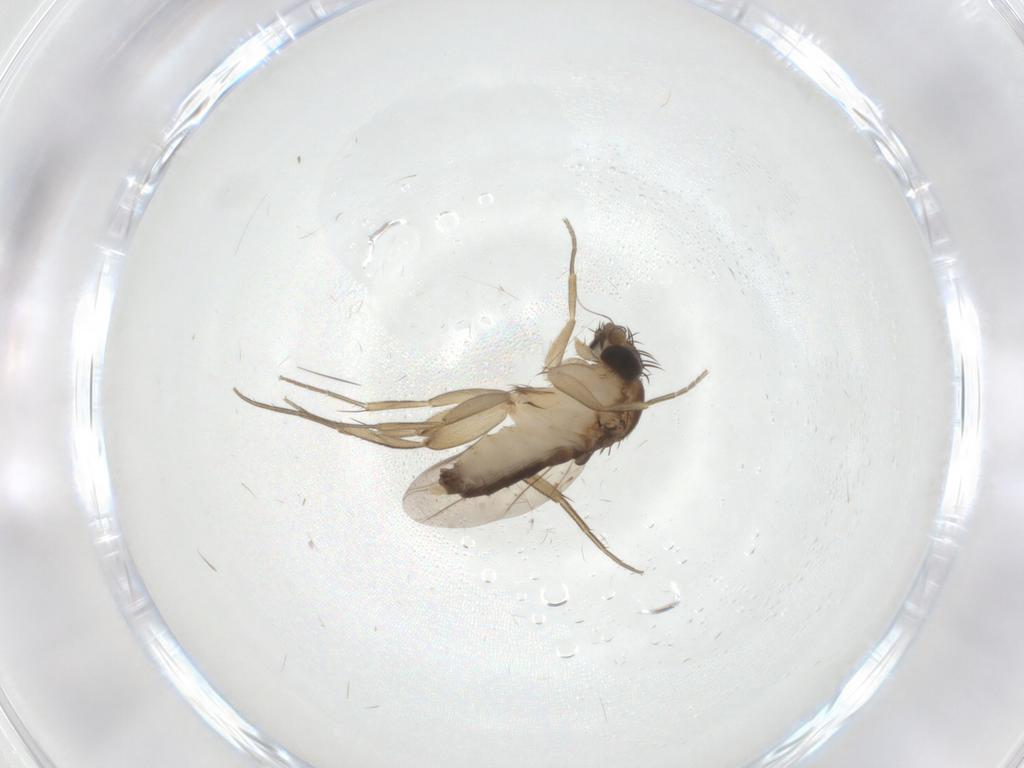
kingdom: Animalia
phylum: Arthropoda
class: Insecta
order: Diptera
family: Phoridae
